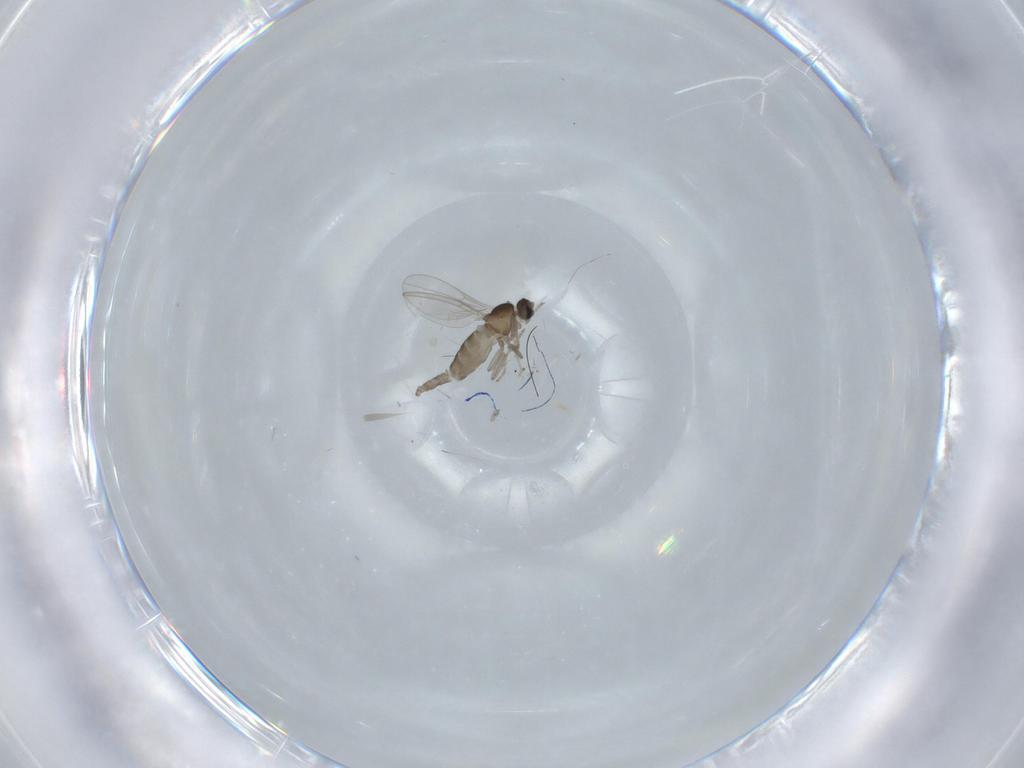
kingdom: Animalia
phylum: Arthropoda
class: Insecta
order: Diptera
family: Cecidomyiidae
